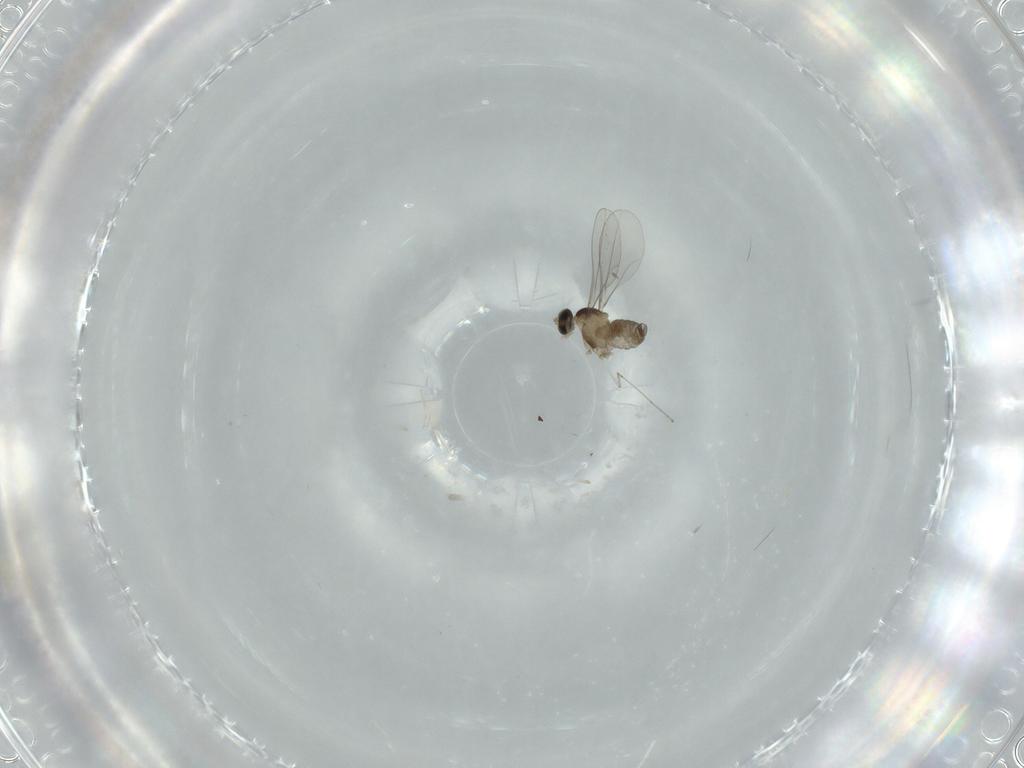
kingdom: Animalia
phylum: Arthropoda
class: Insecta
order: Diptera
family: Cecidomyiidae
